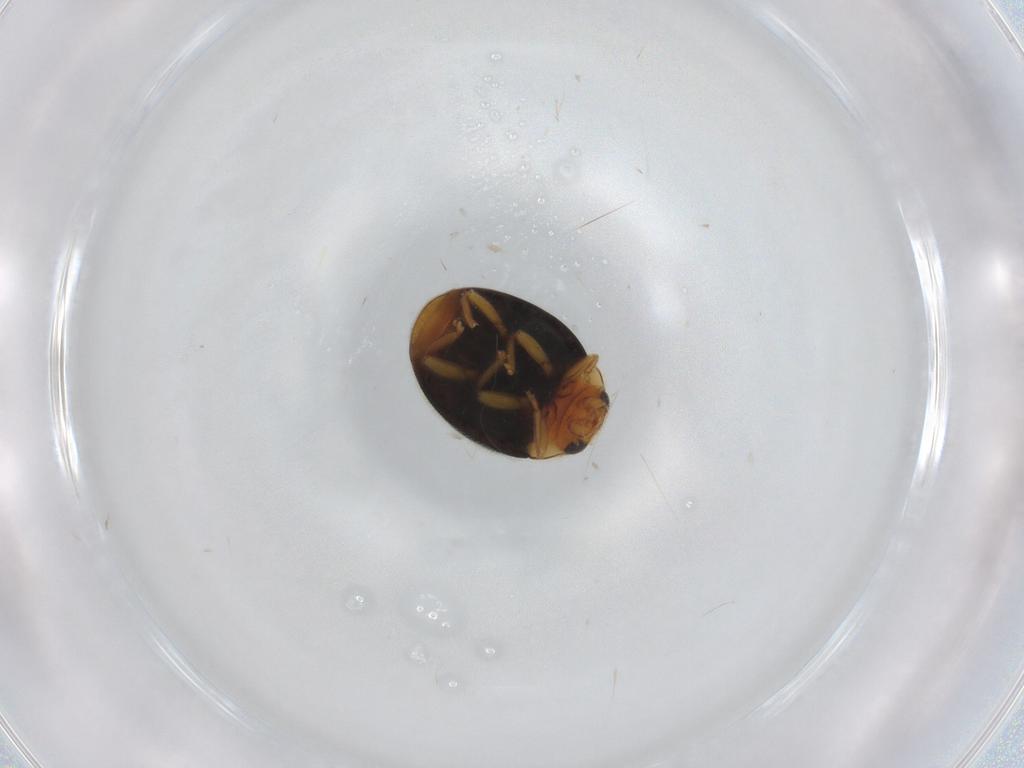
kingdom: Animalia
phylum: Arthropoda
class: Insecta
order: Coleoptera
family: Coccinellidae
